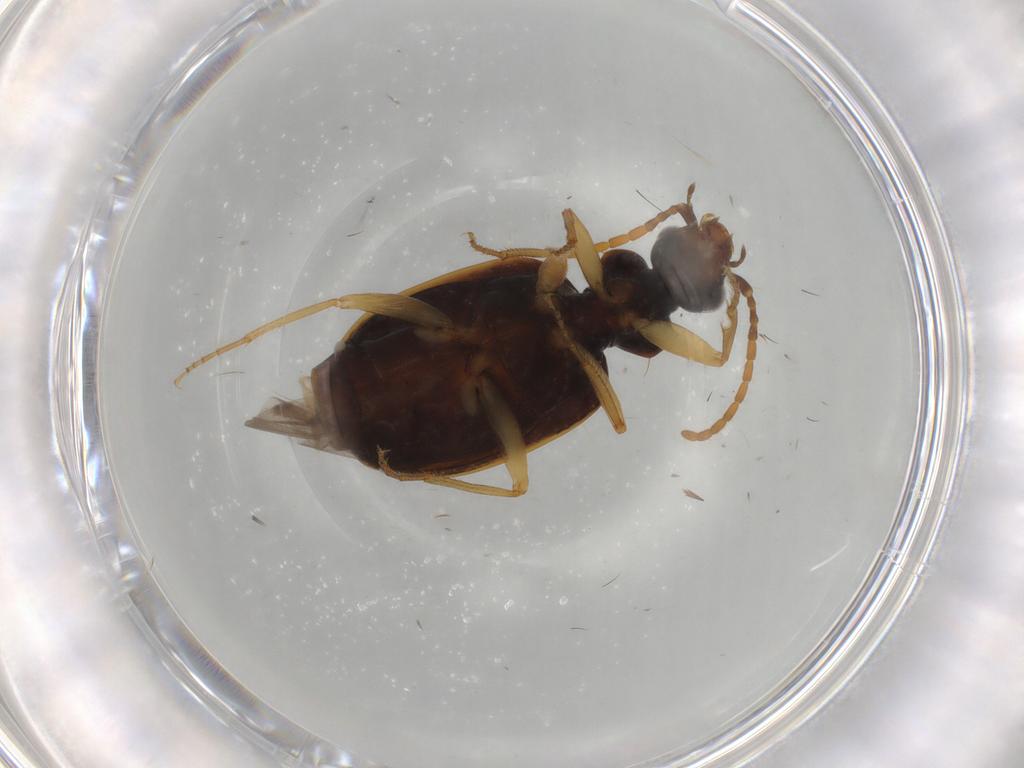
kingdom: Animalia
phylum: Arthropoda
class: Insecta
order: Coleoptera
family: Carabidae
